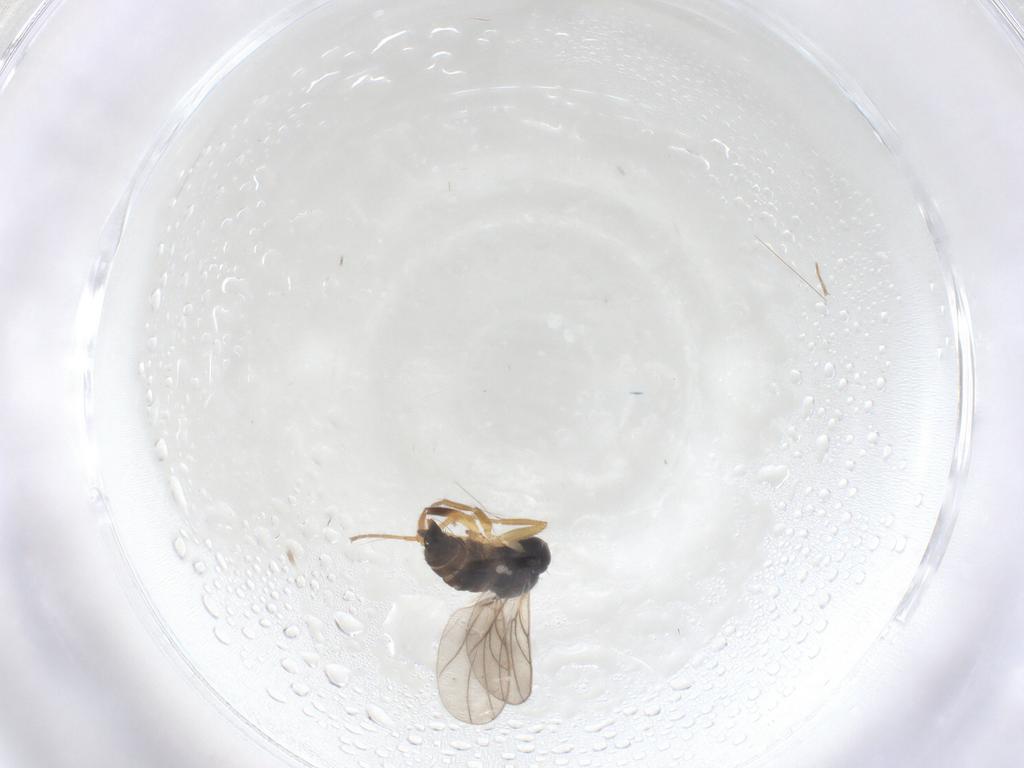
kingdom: Animalia
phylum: Arthropoda
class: Insecta
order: Diptera
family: Hybotidae
